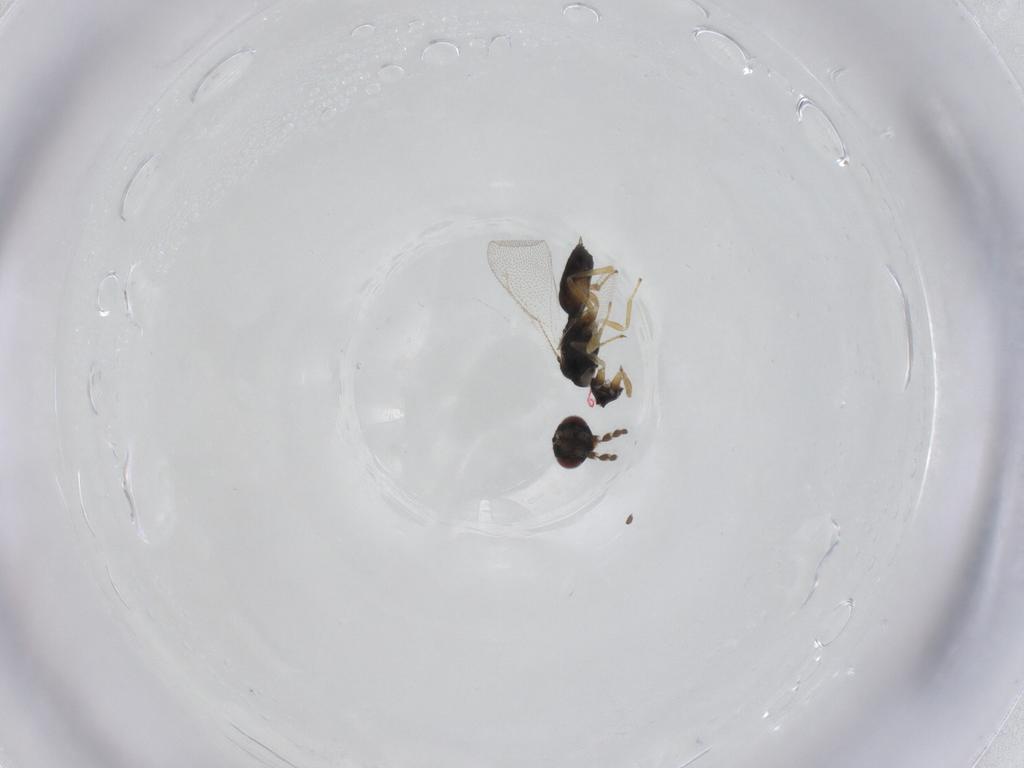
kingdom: Animalia
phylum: Arthropoda
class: Insecta
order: Hymenoptera
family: Eulophidae
